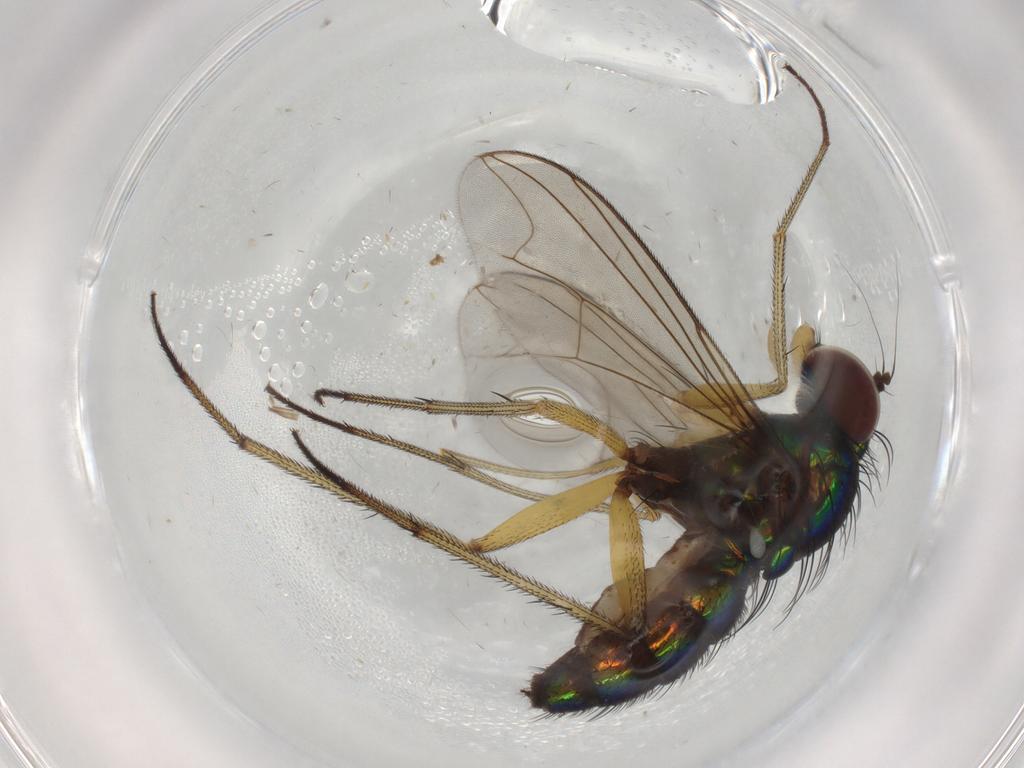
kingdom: Animalia
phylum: Arthropoda
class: Insecta
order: Diptera
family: Dolichopodidae
